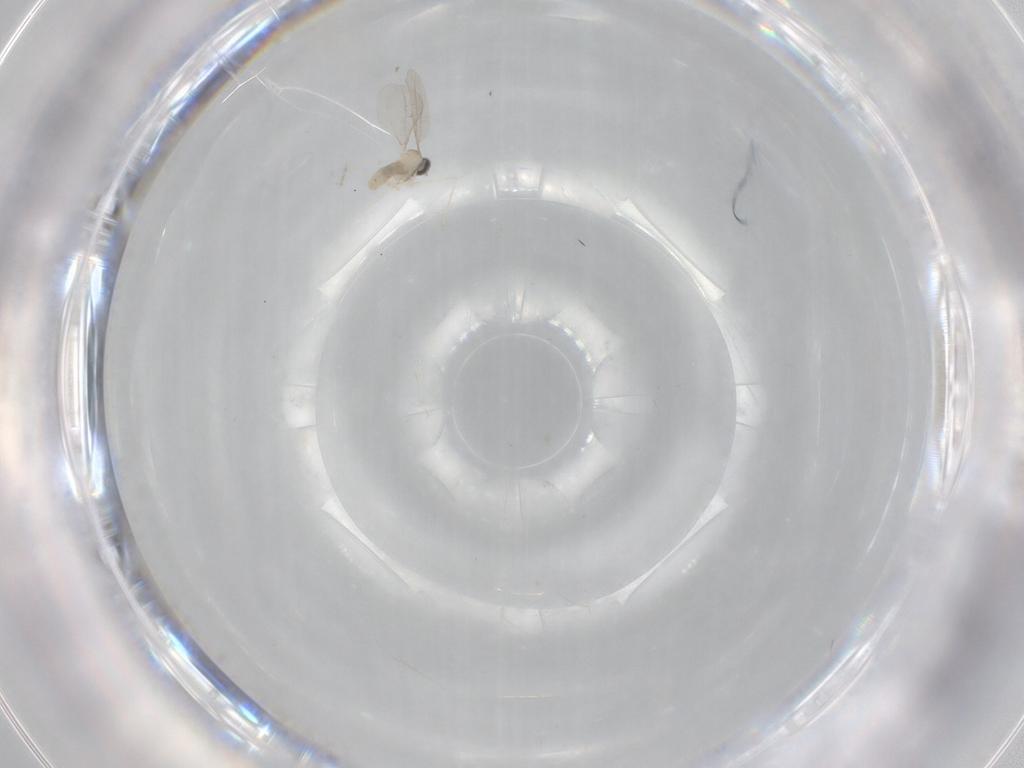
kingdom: Animalia
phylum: Arthropoda
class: Insecta
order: Diptera
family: Cecidomyiidae
